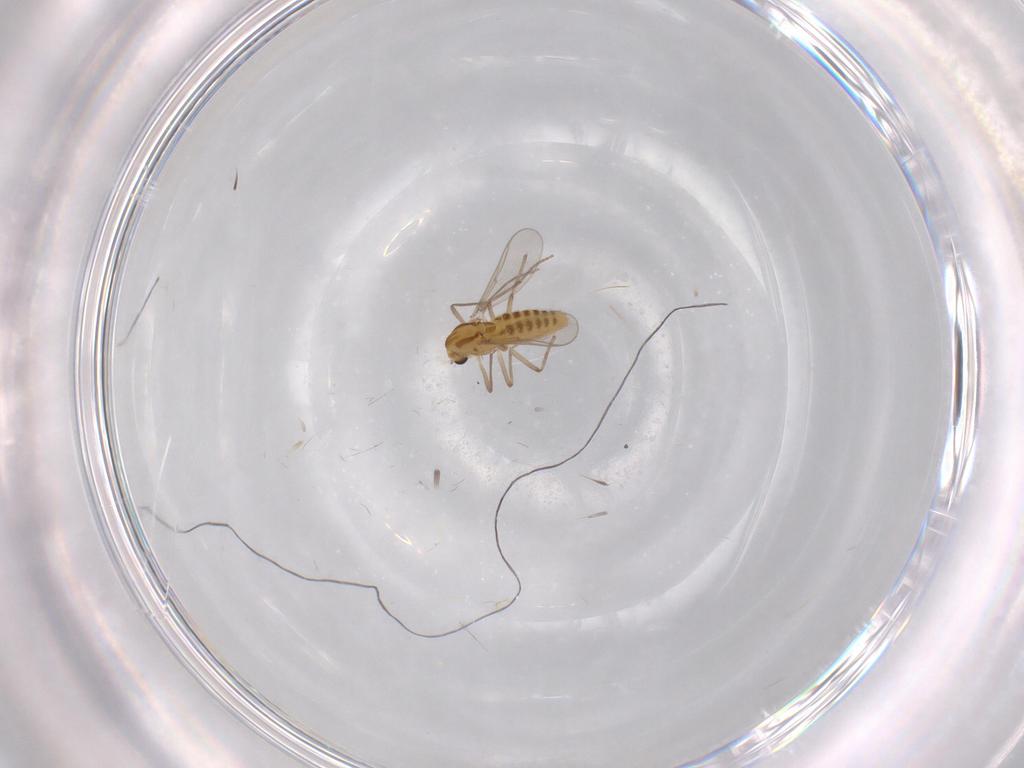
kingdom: Animalia
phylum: Arthropoda
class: Insecta
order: Diptera
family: Chironomidae
